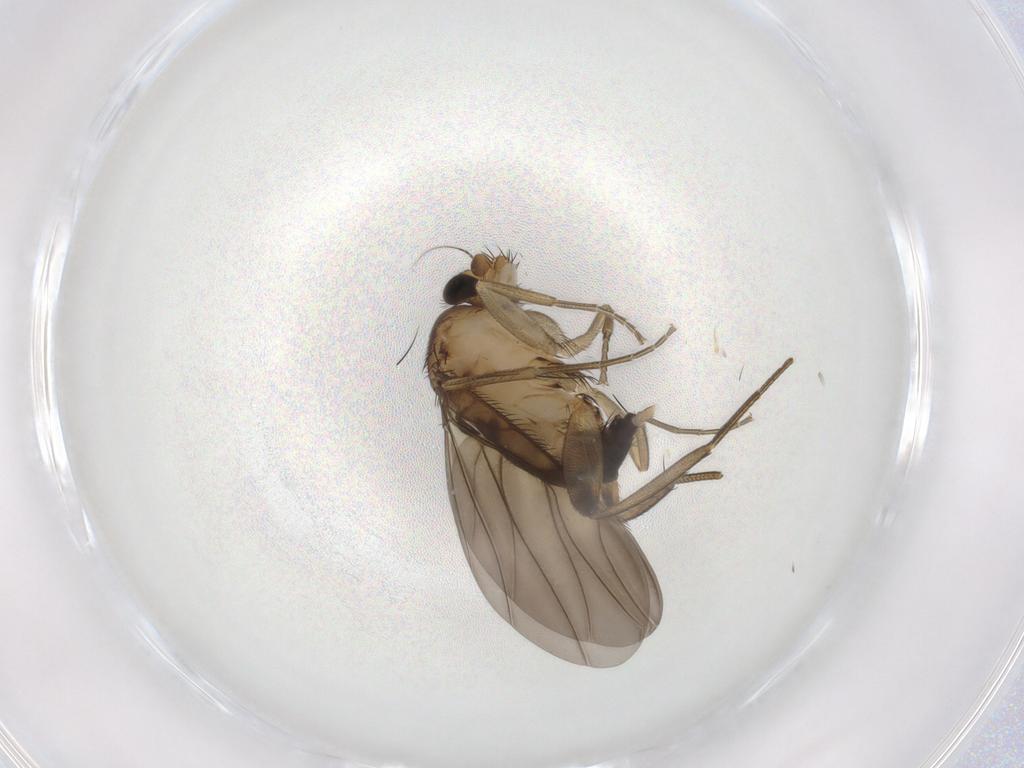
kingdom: Animalia
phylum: Arthropoda
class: Insecta
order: Diptera
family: Phoridae
